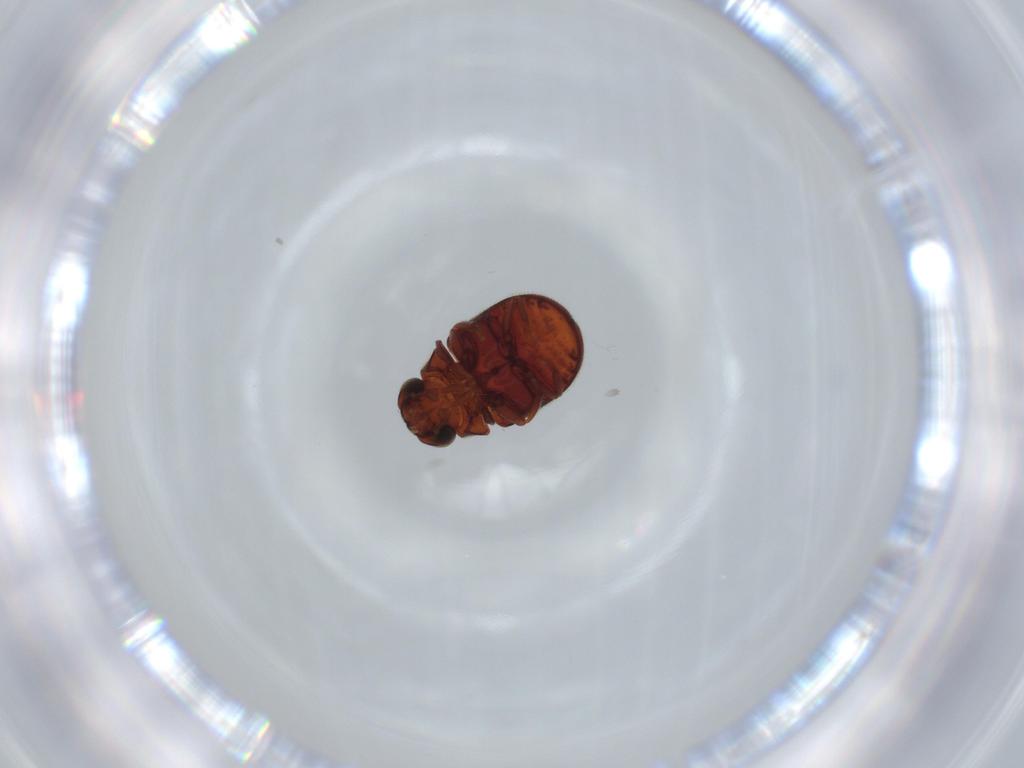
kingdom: Animalia
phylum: Arthropoda
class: Insecta
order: Coleoptera
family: Ptinidae
